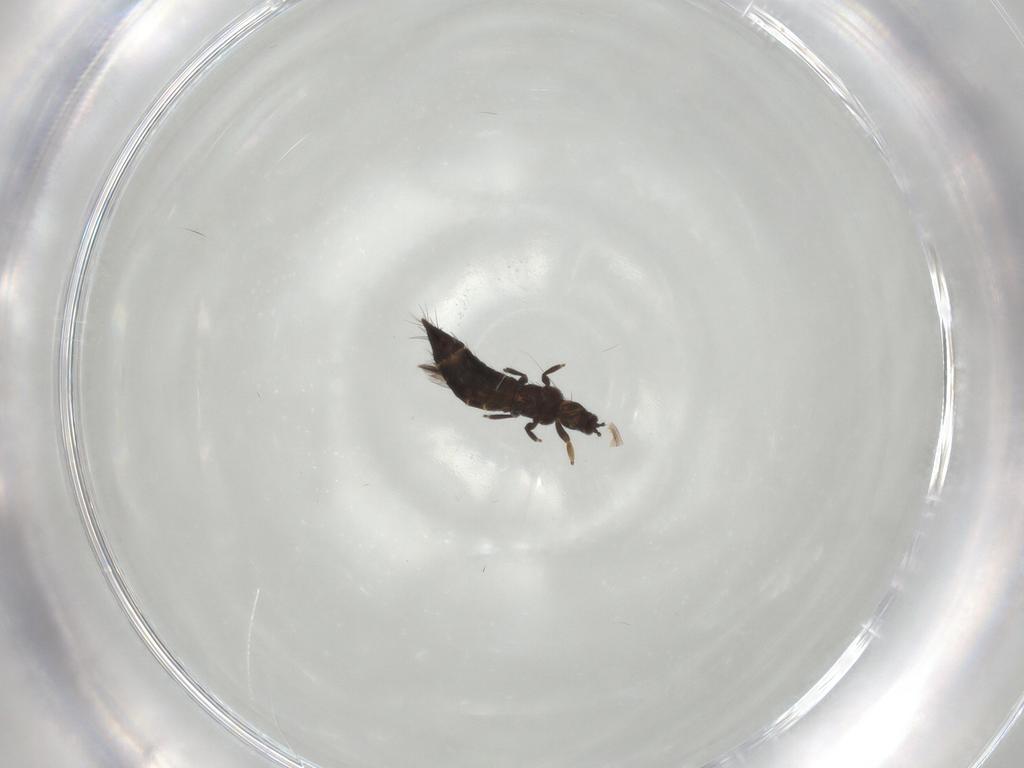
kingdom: Animalia
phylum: Arthropoda
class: Insecta
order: Thysanoptera
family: Thripidae
